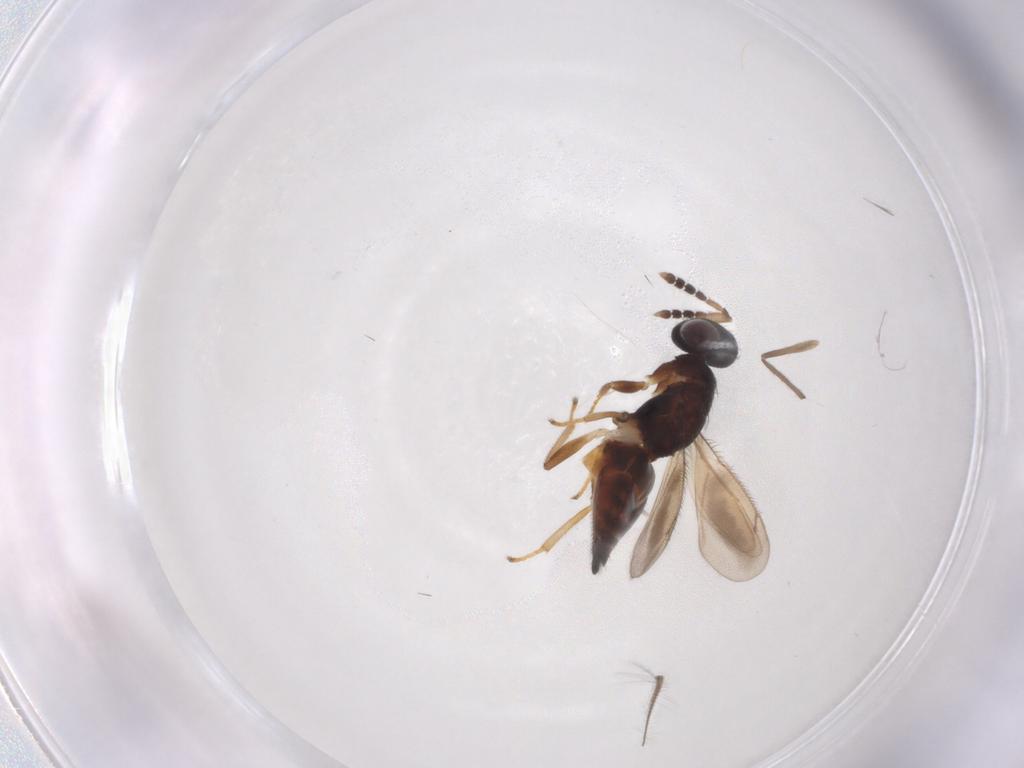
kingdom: Animalia
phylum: Arthropoda
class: Insecta
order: Hymenoptera
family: Eulophidae
